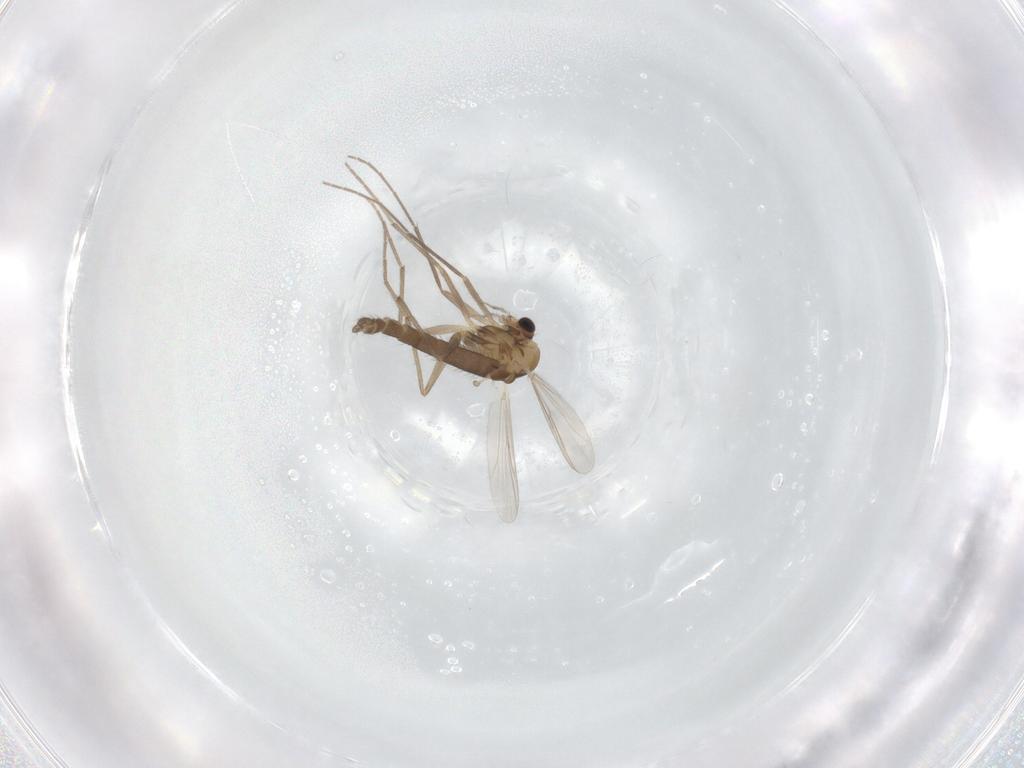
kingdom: Animalia
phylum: Arthropoda
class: Insecta
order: Diptera
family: Chironomidae
